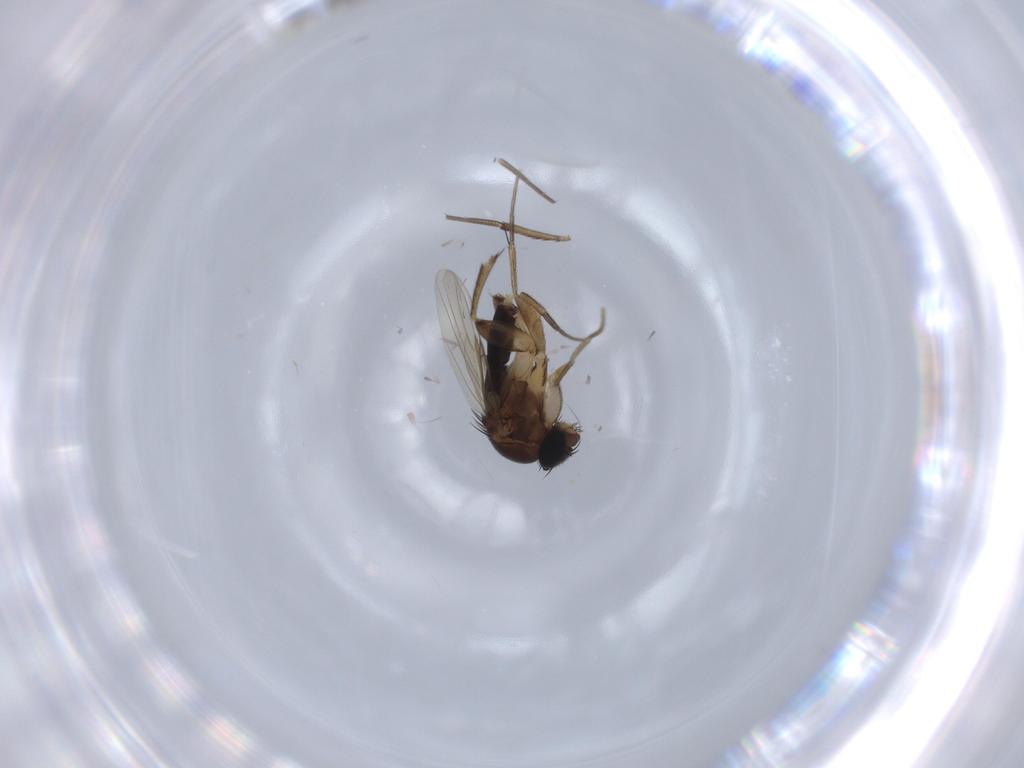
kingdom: Animalia
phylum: Arthropoda
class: Insecta
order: Diptera
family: Phoridae
